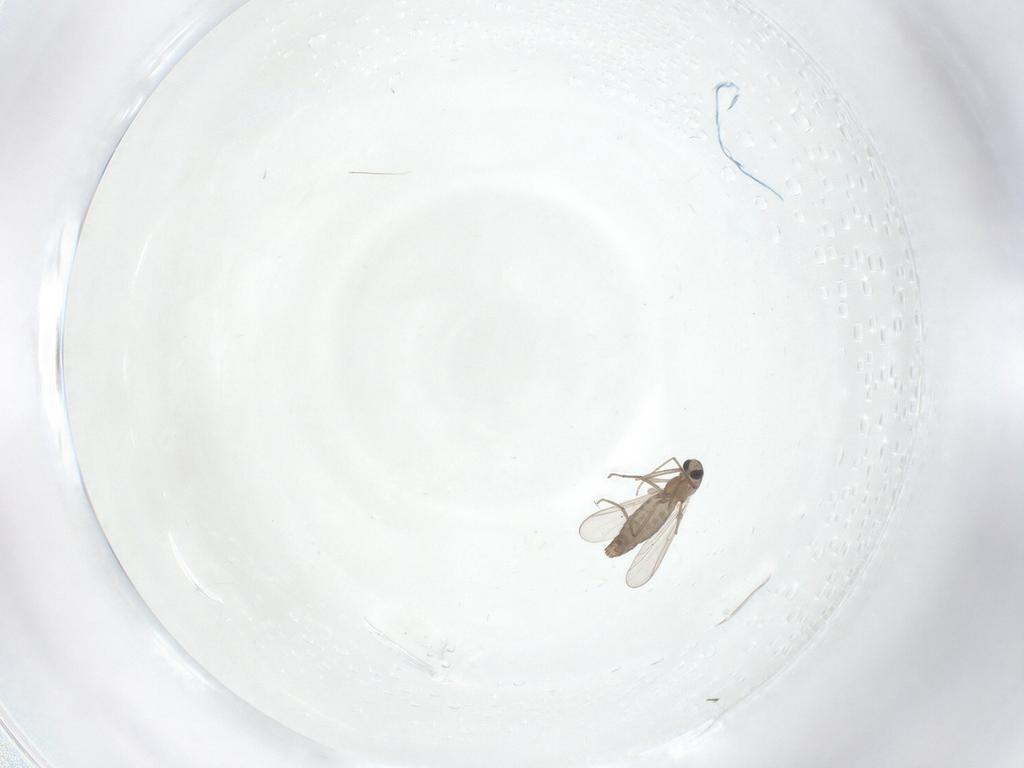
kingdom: Animalia
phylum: Arthropoda
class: Insecta
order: Diptera
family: Chironomidae
